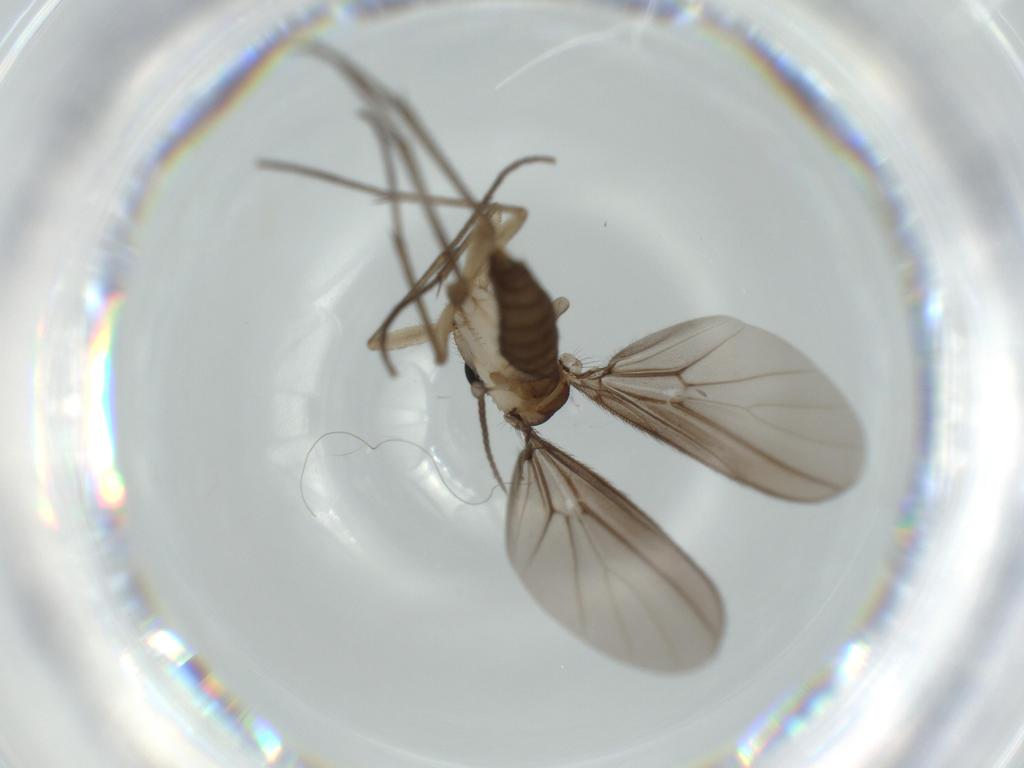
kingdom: Animalia
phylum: Arthropoda
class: Insecta
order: Diptera
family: Diadocidiidae
